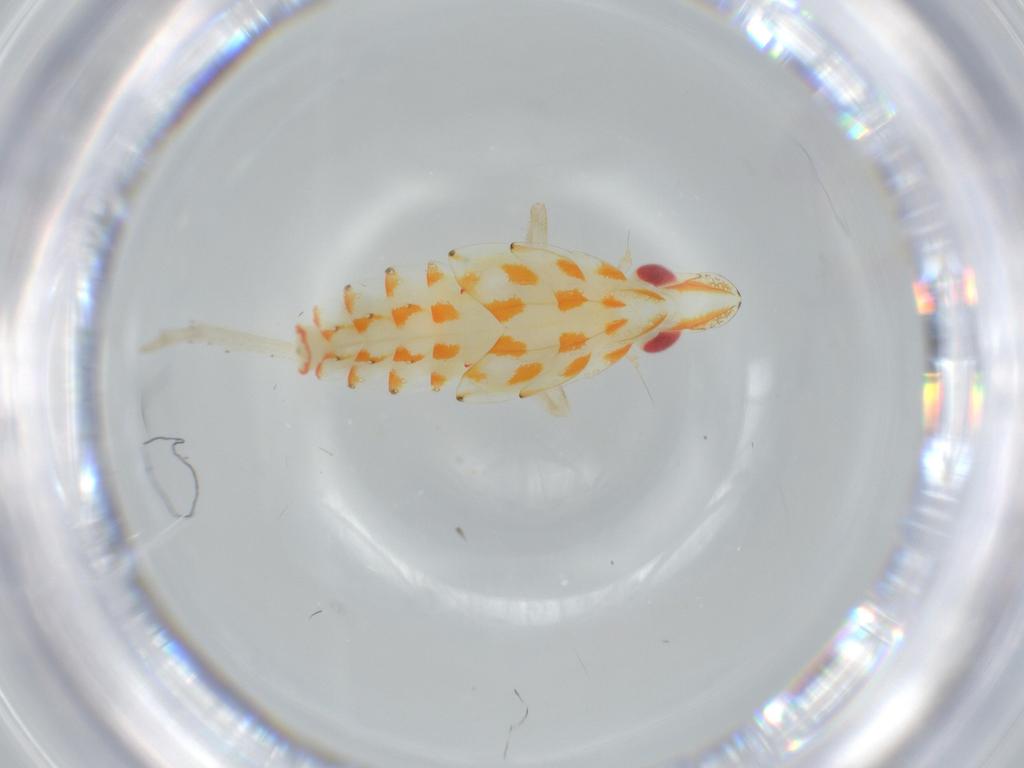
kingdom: Animalia
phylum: Arthropoda
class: Insecta
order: Hemiptera
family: Tropiduchidae
